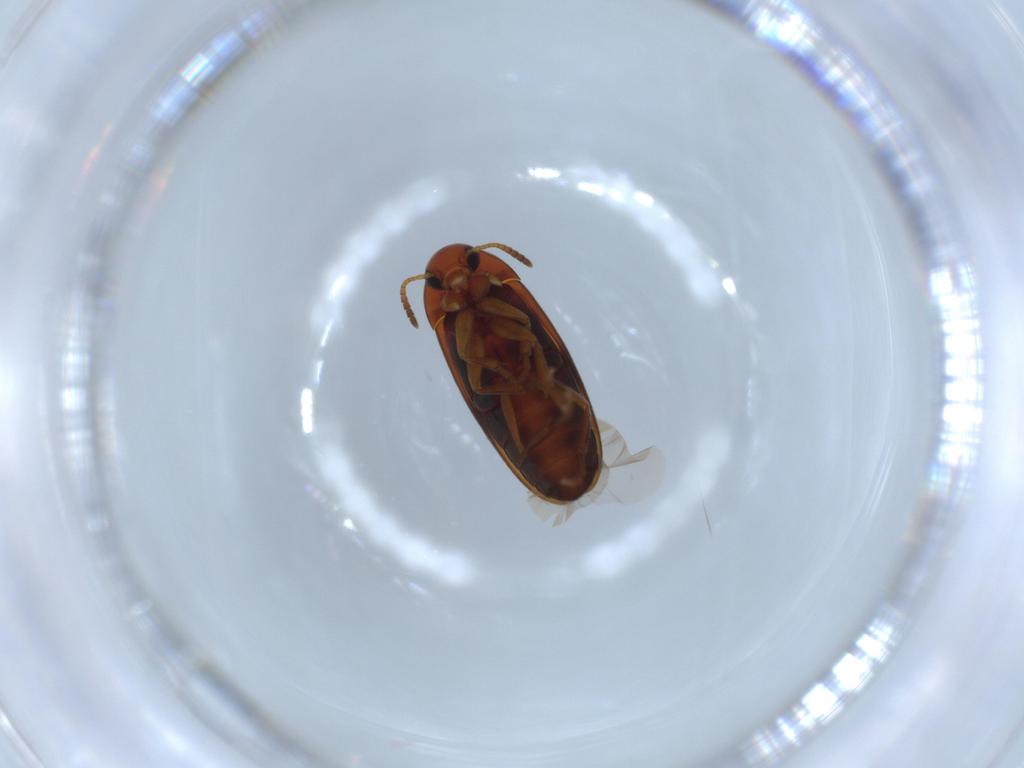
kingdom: Animalia
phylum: Arthropoda
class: Insecta
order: Coleoptera
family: Scraptiidae
